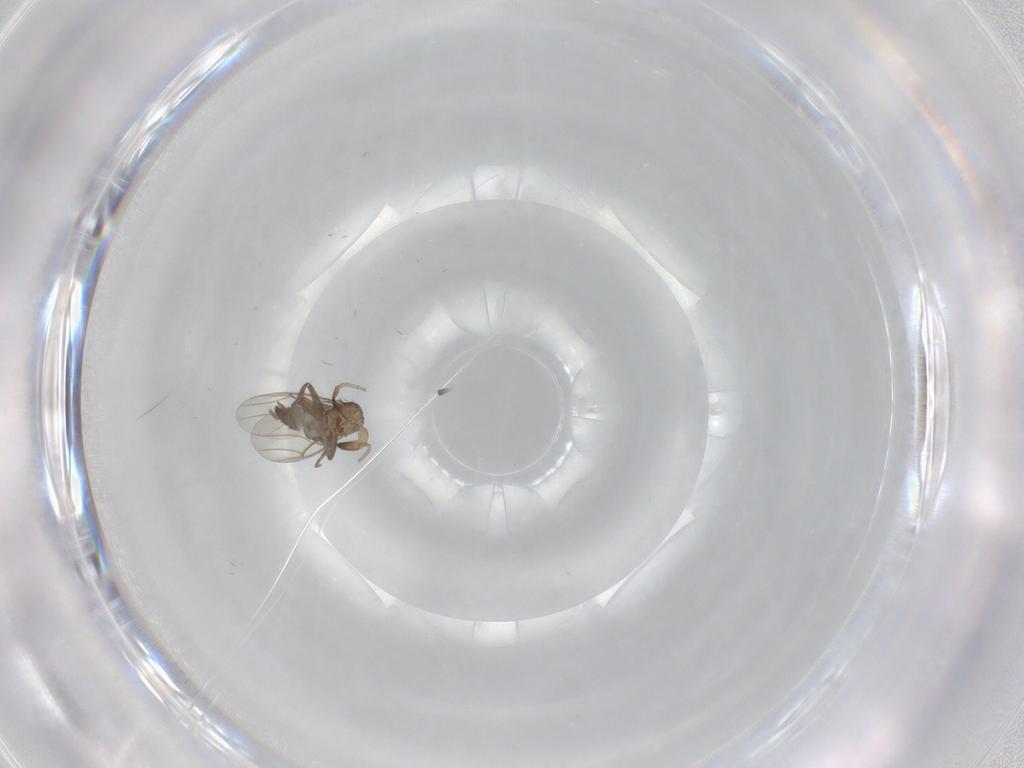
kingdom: Animalia
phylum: Arthropoda
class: Insecta
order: Diptera
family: Phoridae
